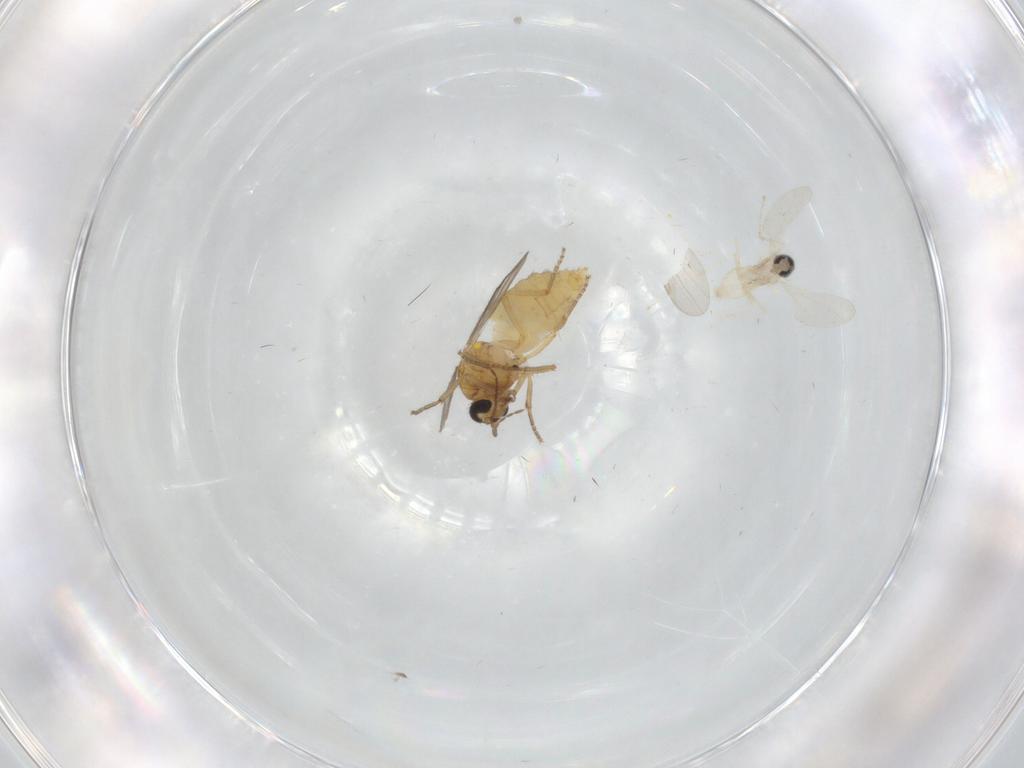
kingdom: Animalia
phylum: Arthropoda
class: Insecta
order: Diptera
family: Ceratopogonidae
